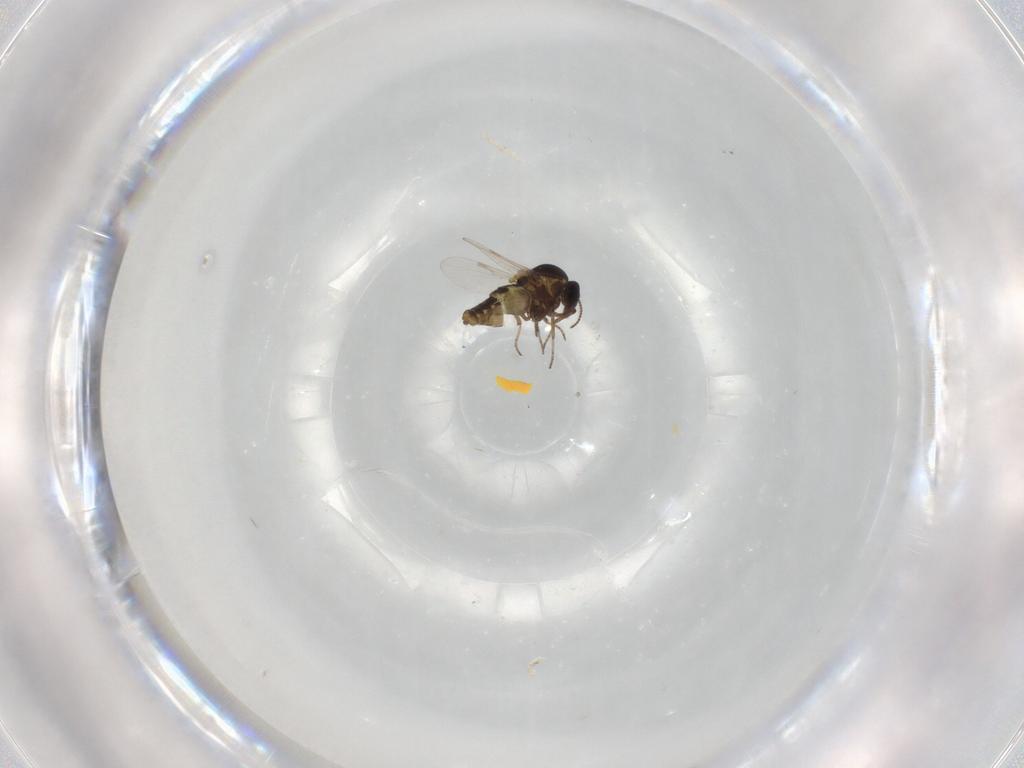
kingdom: Animalia
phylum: Arthropoda
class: Insecta
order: Diptera
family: Ceratopogonidae
